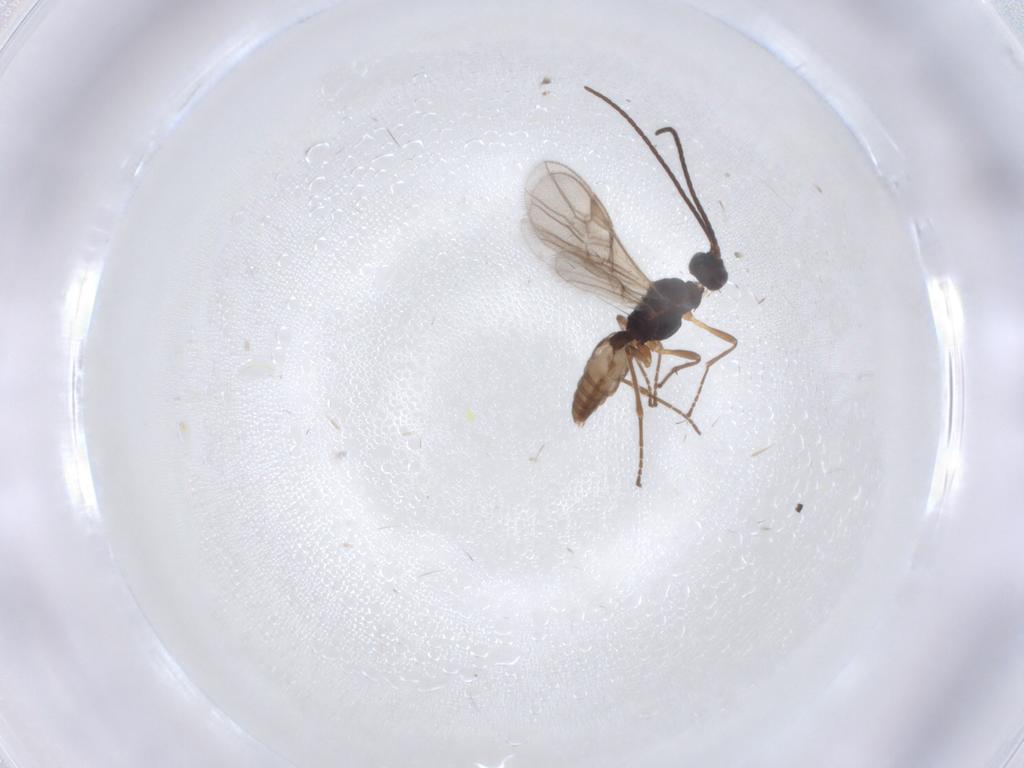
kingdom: Animalia
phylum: Arthropoda
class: Insecta
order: Hymenoptera
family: Braconidae
